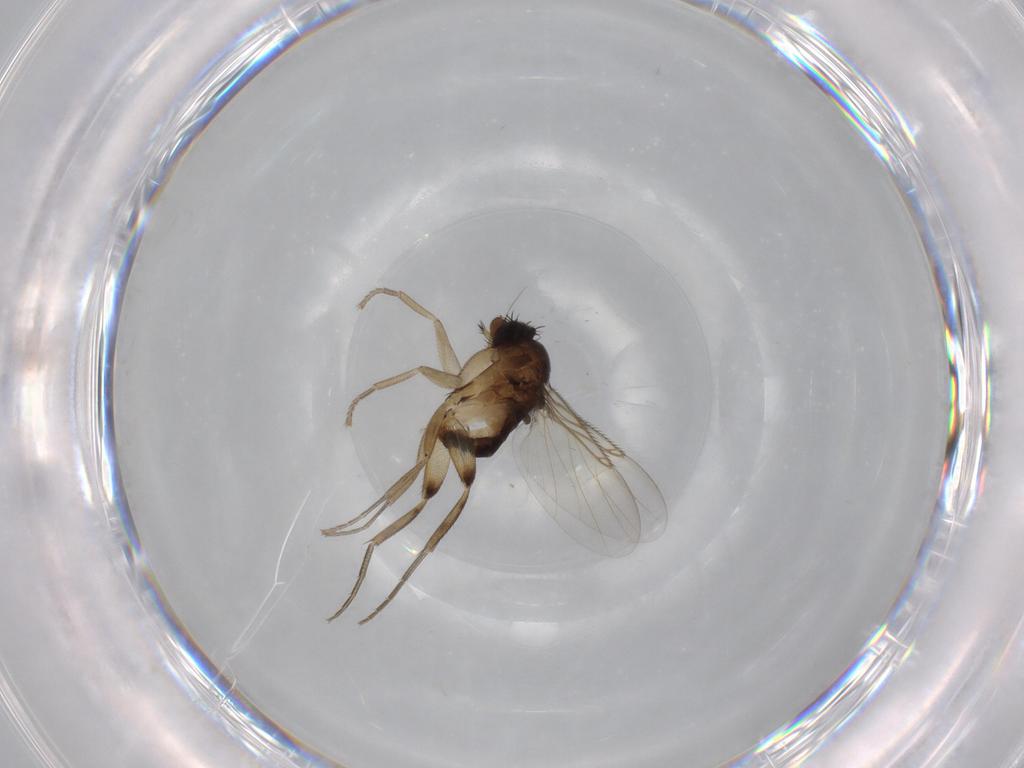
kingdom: Animalia
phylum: Arthropoda
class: Insecta
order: Diptera
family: Phoridae
